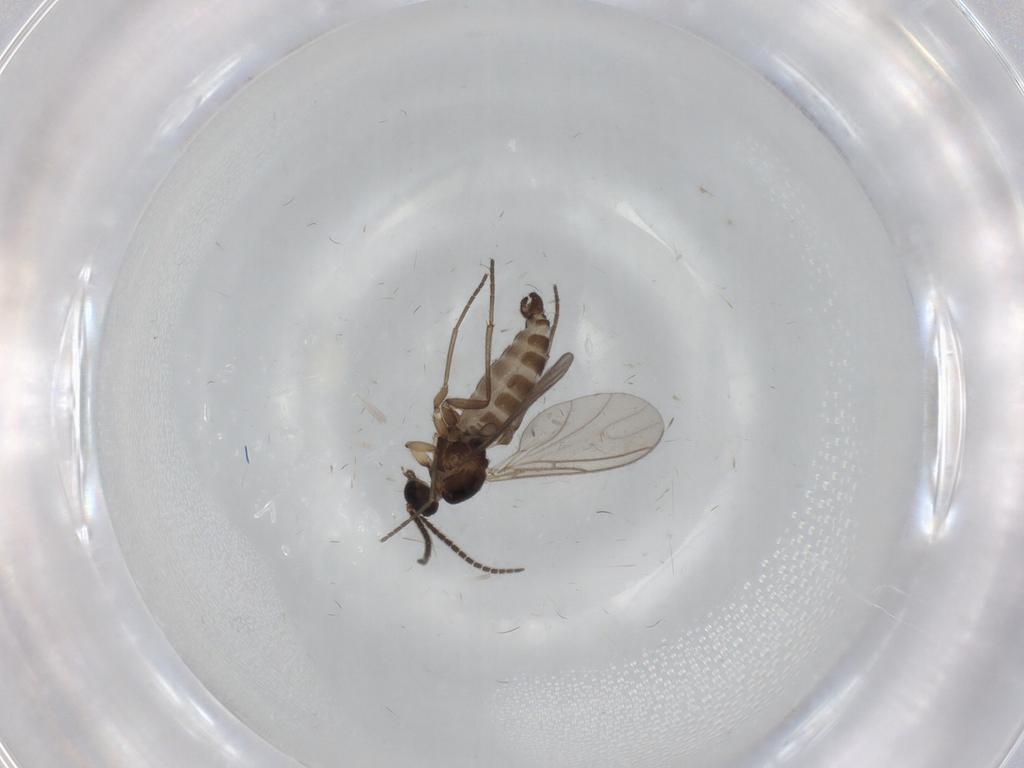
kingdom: Animalia
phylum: Arthropoda
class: Insecta
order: Diptera
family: Sciaridae
